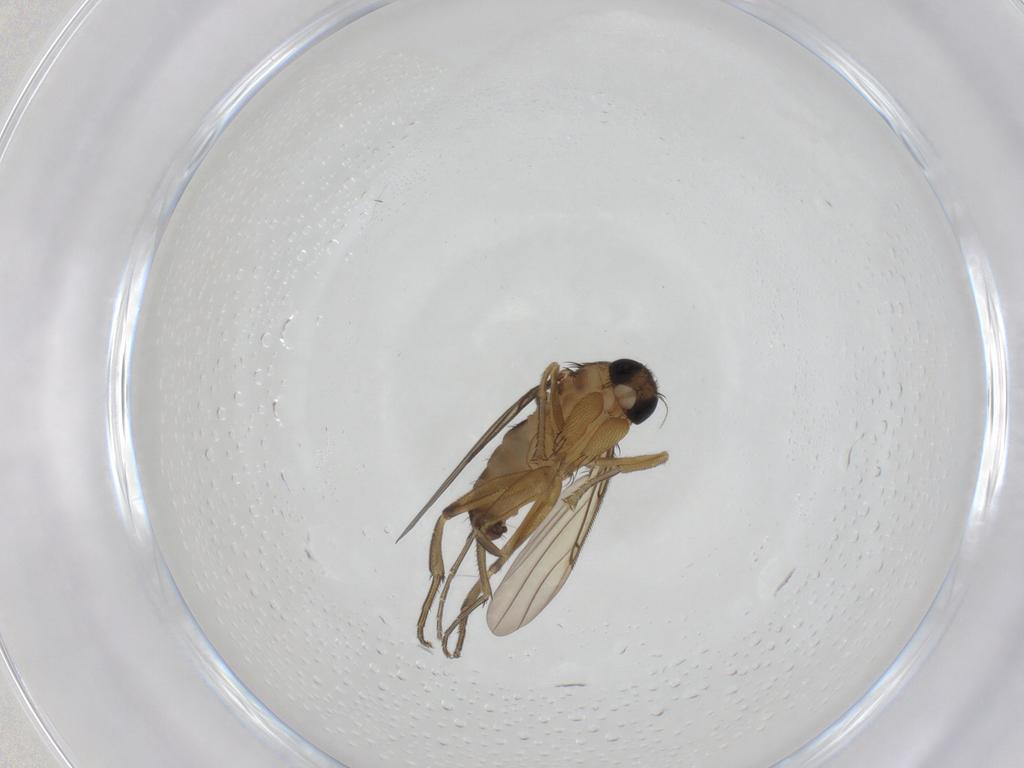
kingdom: Animalia
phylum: Arthropoda
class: Insecta
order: Diptera
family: Phoridae
